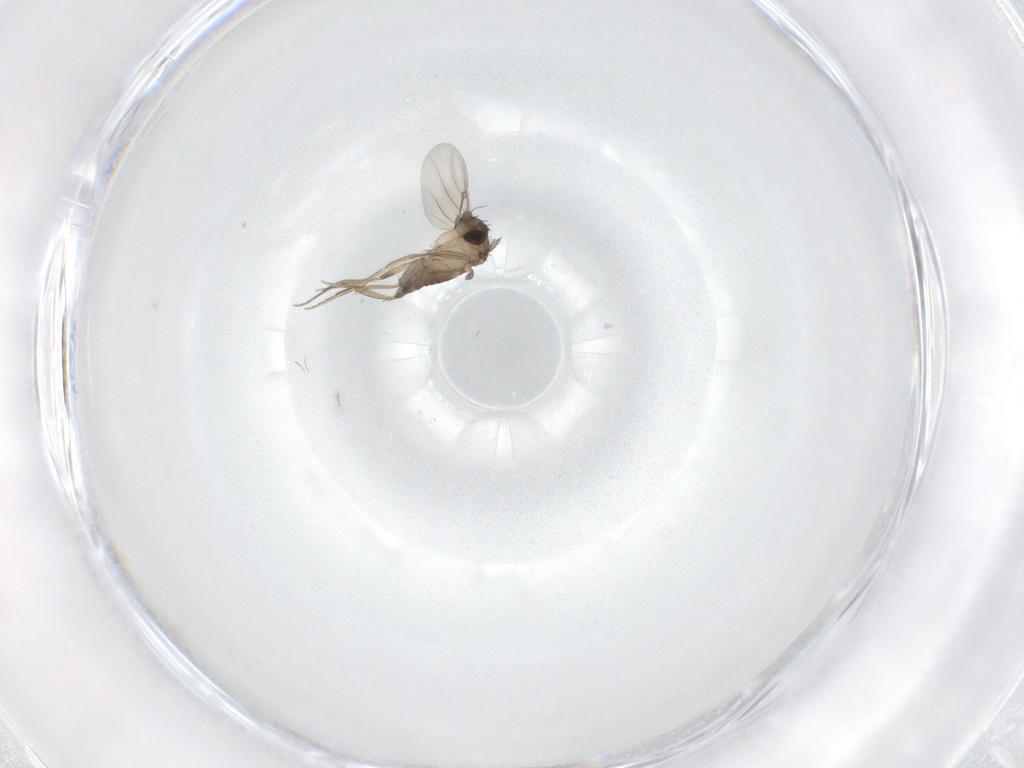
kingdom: Animalia
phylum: Arthropoda
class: Insecta
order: Diptera
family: Phoridae
